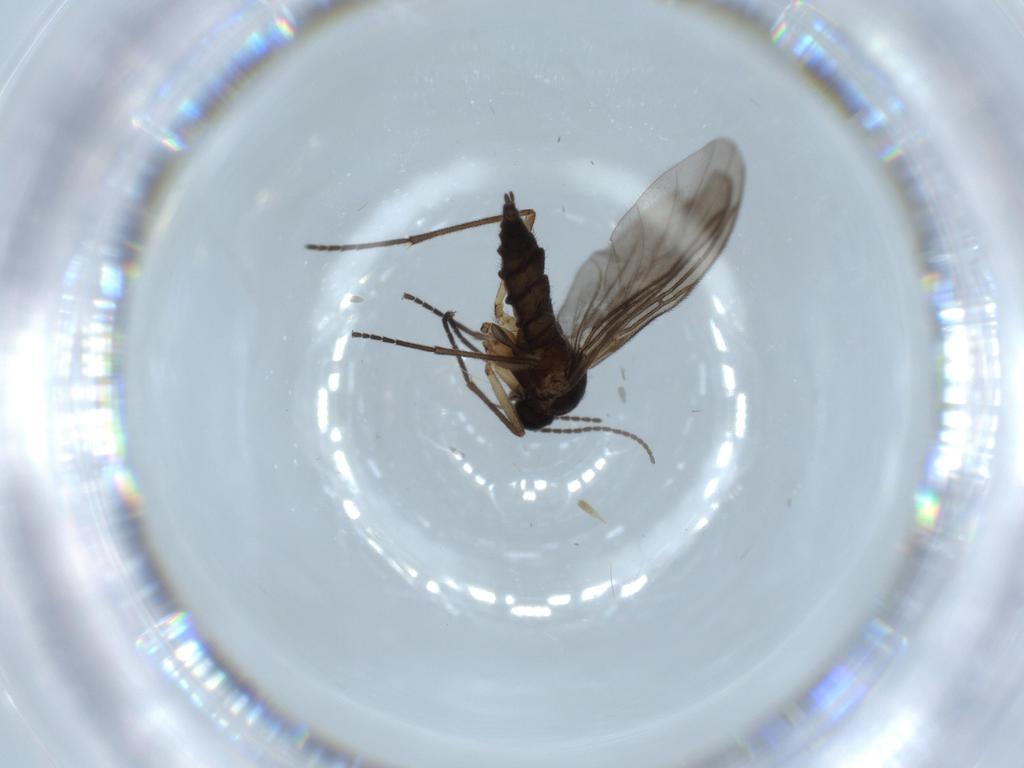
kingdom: Animalia
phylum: Arthropoda
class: Insecta
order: Diptera
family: Sciaridae
